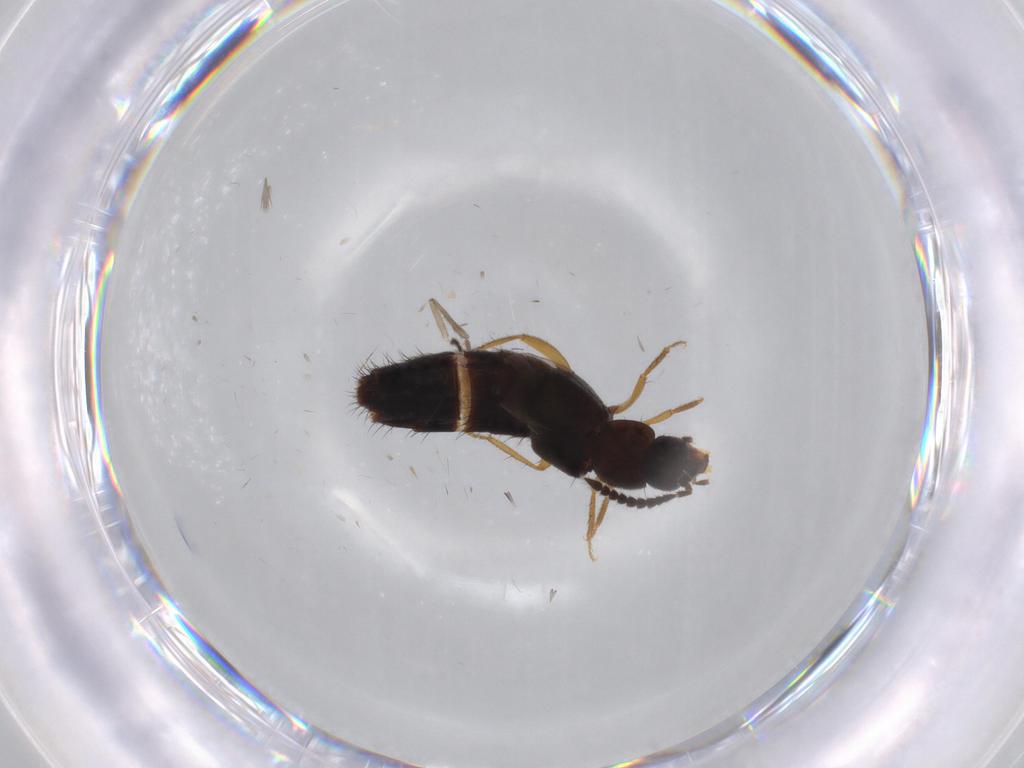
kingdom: Animalia
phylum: Arthropoda
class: Insecta
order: Coleoptera
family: Staphylinidae
